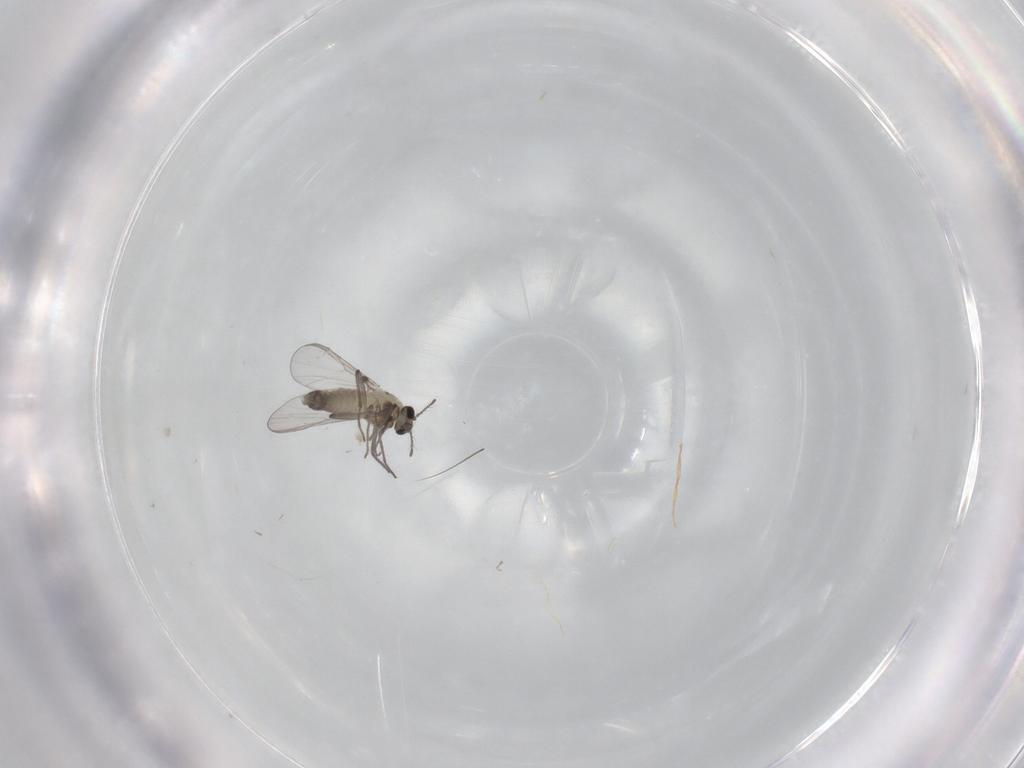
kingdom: Animalia
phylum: Arthropoda
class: Insecta
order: Diptera
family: Chironomidae
